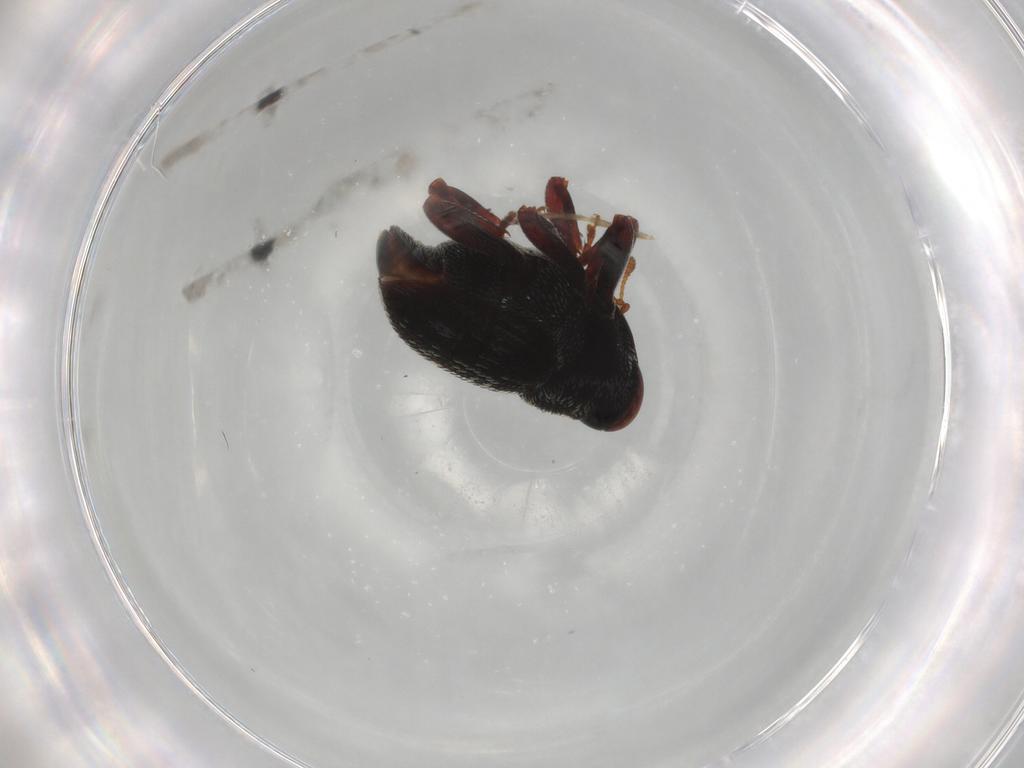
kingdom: Animalia
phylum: Arthropoda
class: Insecta
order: Coleoptera
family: Curculionidae
